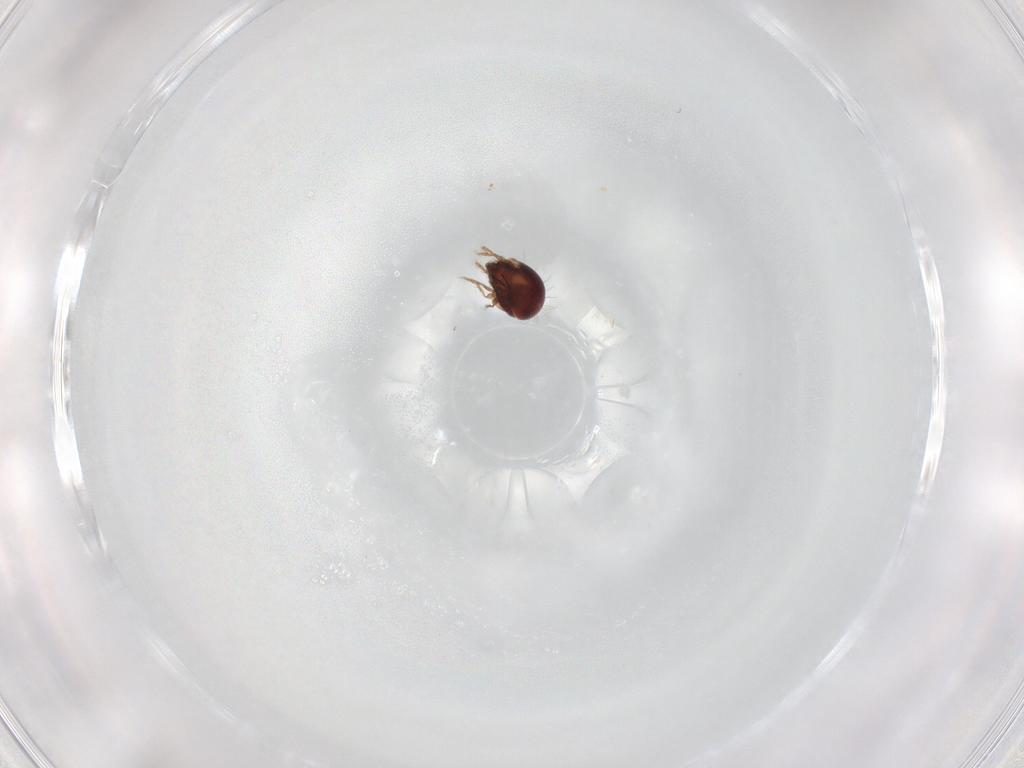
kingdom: Animalia
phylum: Arthropoda
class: Arachnida
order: Sarcoptiformes
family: Humerobatidae
